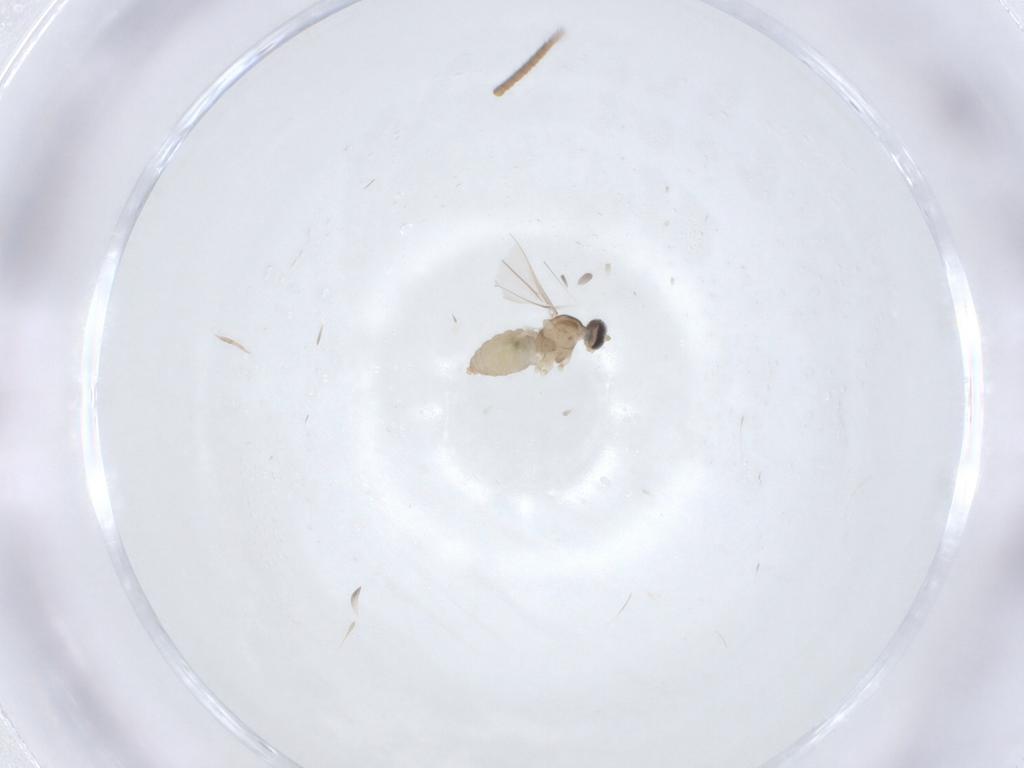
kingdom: Animalia
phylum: Arthropoda
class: Insecta
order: Diptera
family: Cecidomyiidae
